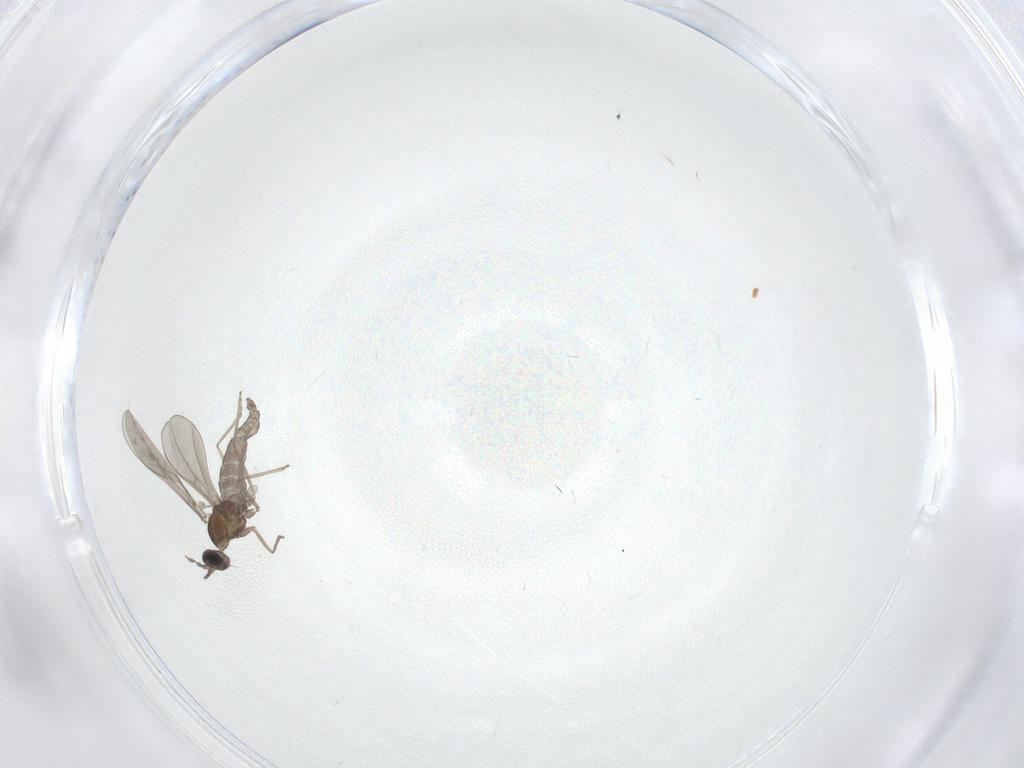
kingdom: Animalia
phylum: Arthropoda
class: Insecta
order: Diptera
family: Cecidomyiidae
